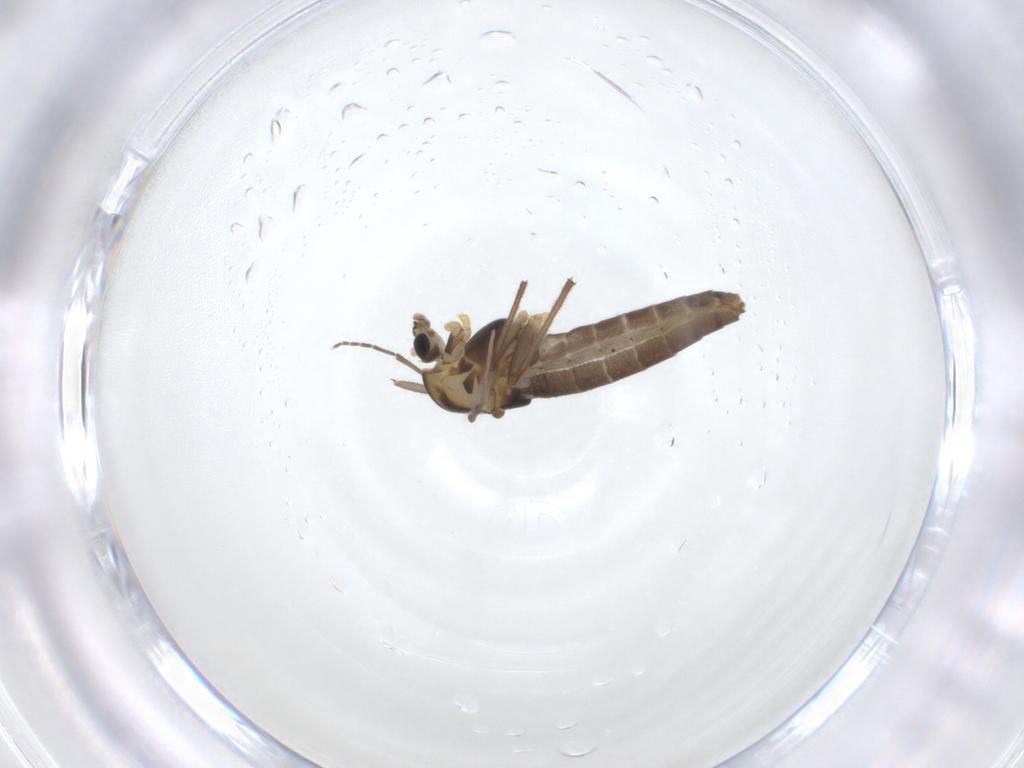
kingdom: Animalia
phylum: Arthropoda
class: Insecta
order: Diptera
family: Chironomidae
